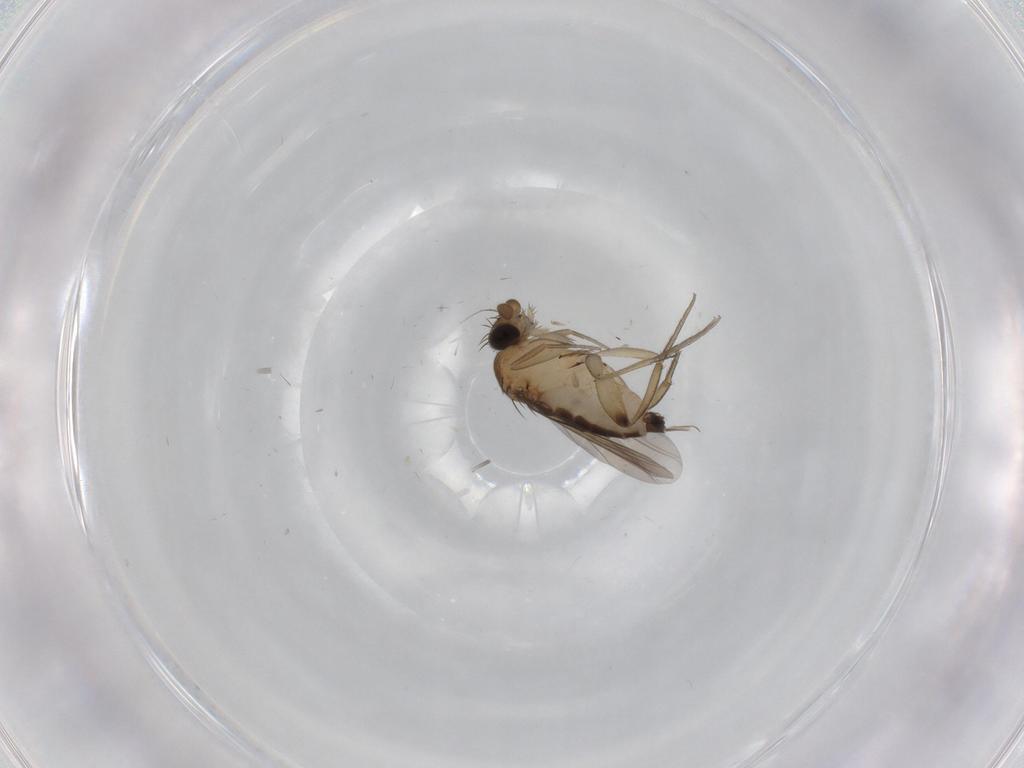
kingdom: Animalia
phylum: Arthropoda
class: Insecta
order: Diptera
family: Phoridae
